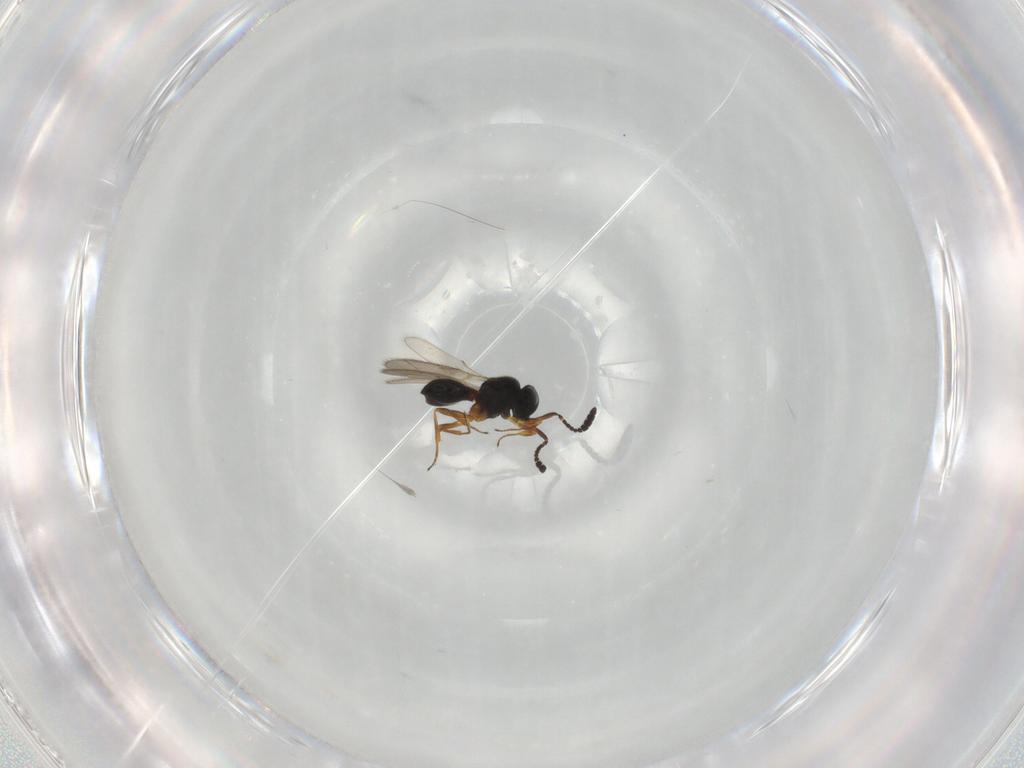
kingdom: Animalia
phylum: Arthropoda
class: Insecta
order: Hymenoptera
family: Scelionidae
